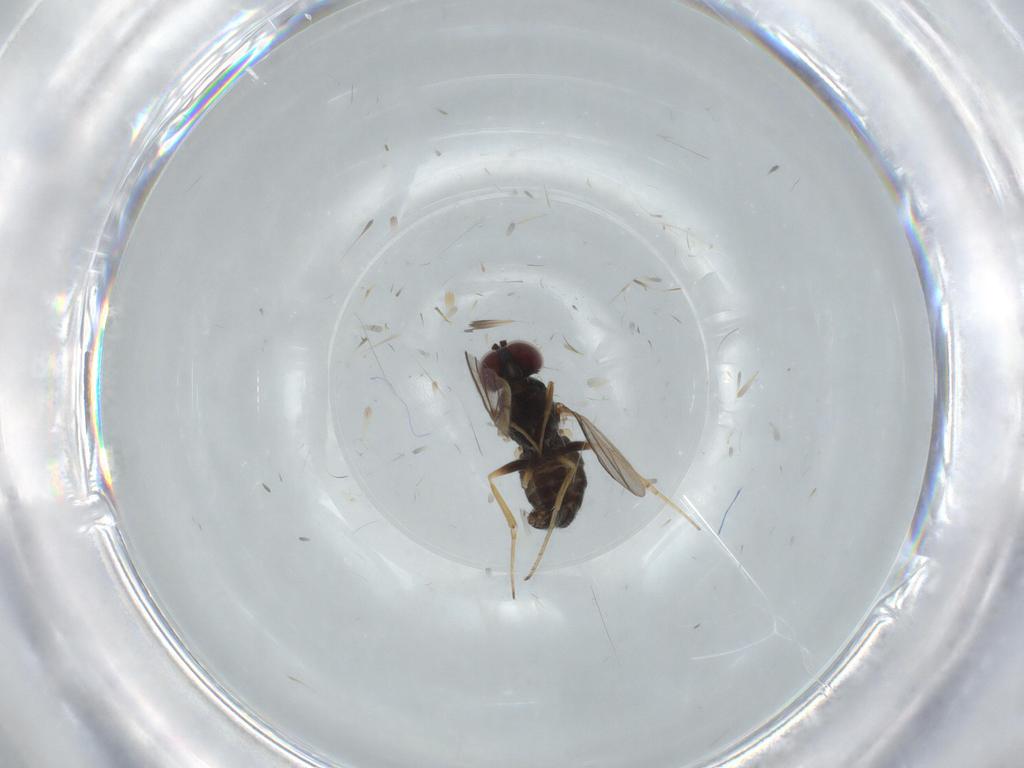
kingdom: Animalia
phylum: Arthropoda
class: Insecta
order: Diptera
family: Dolichopodidae
